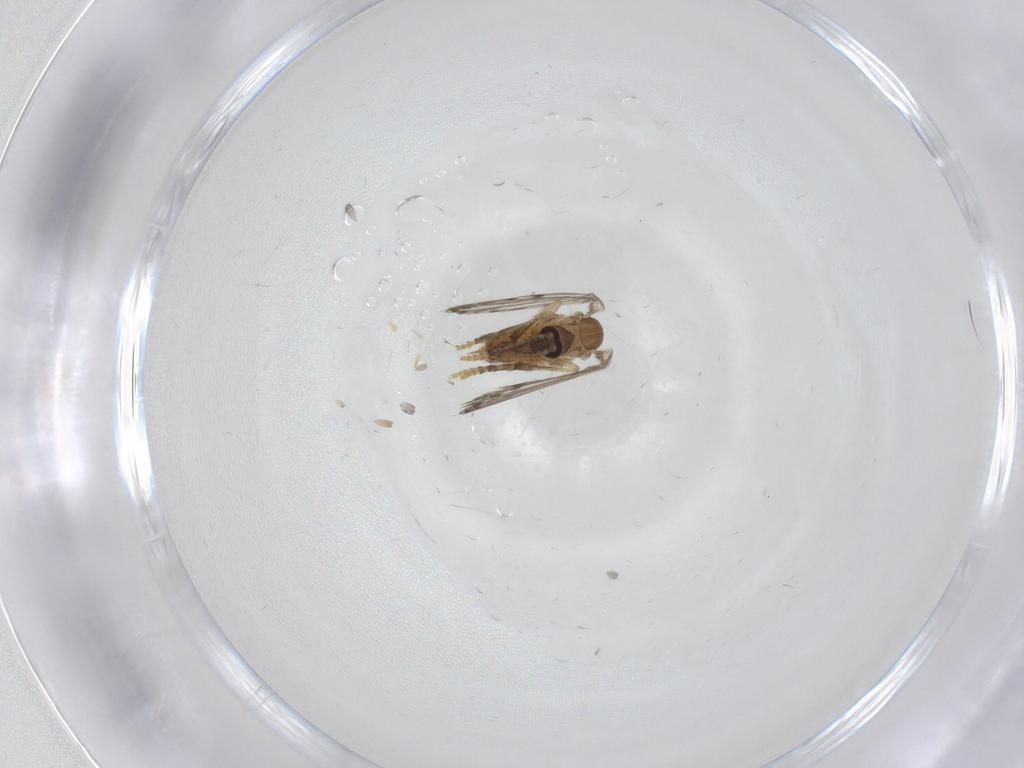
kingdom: Animalia
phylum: Arthropoda
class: Insecta
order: Diptera
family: Psychodidae
